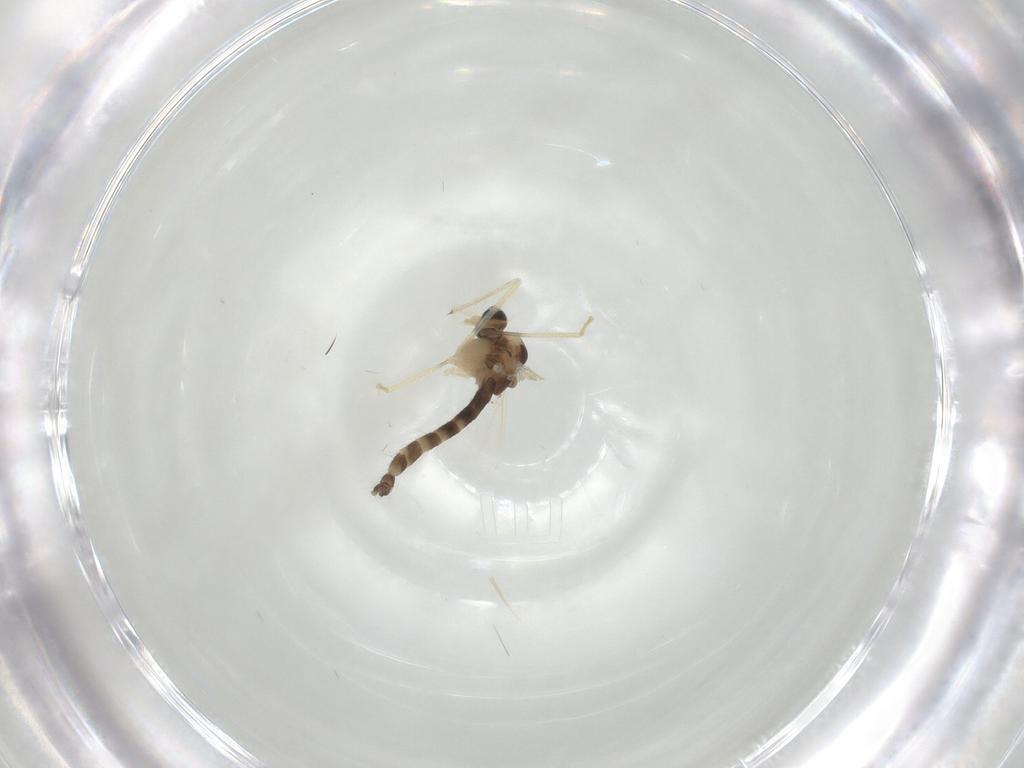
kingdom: Animalia
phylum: Arthropoda
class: Insecta
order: Diptera
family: Chironomidae
